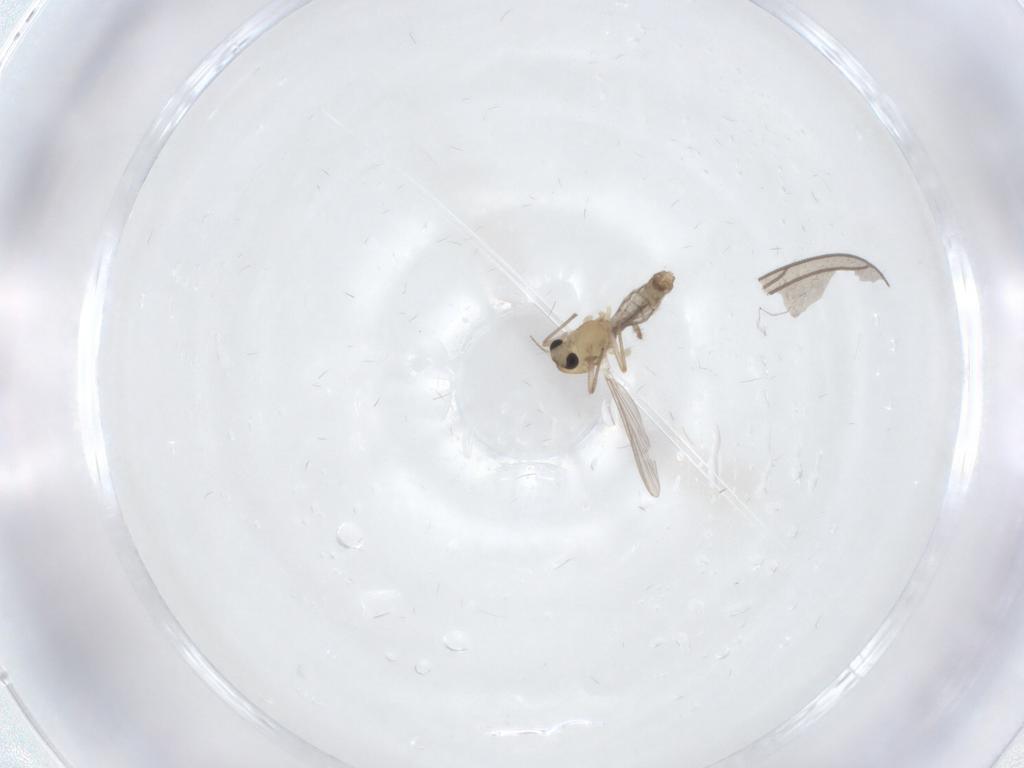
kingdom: Animalia
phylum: Arthropoda
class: Insecta
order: Diptera
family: Chironomidae
